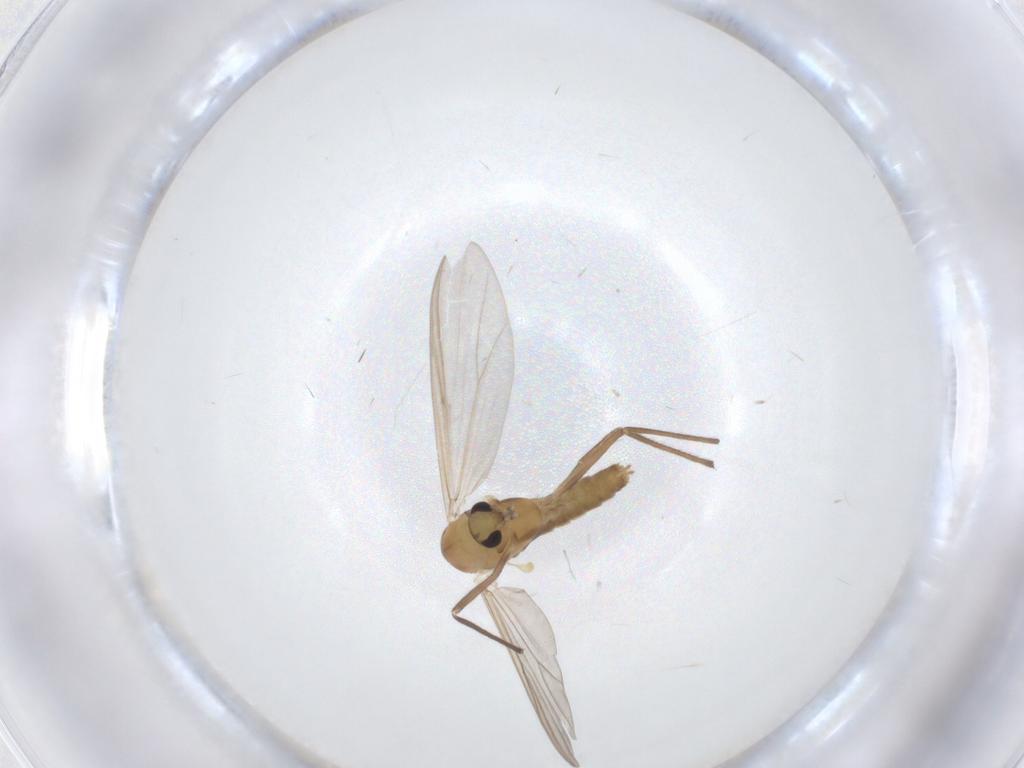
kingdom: Animalia
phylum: Arthropoda
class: Insecta
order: Diptera
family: Chironomidae
